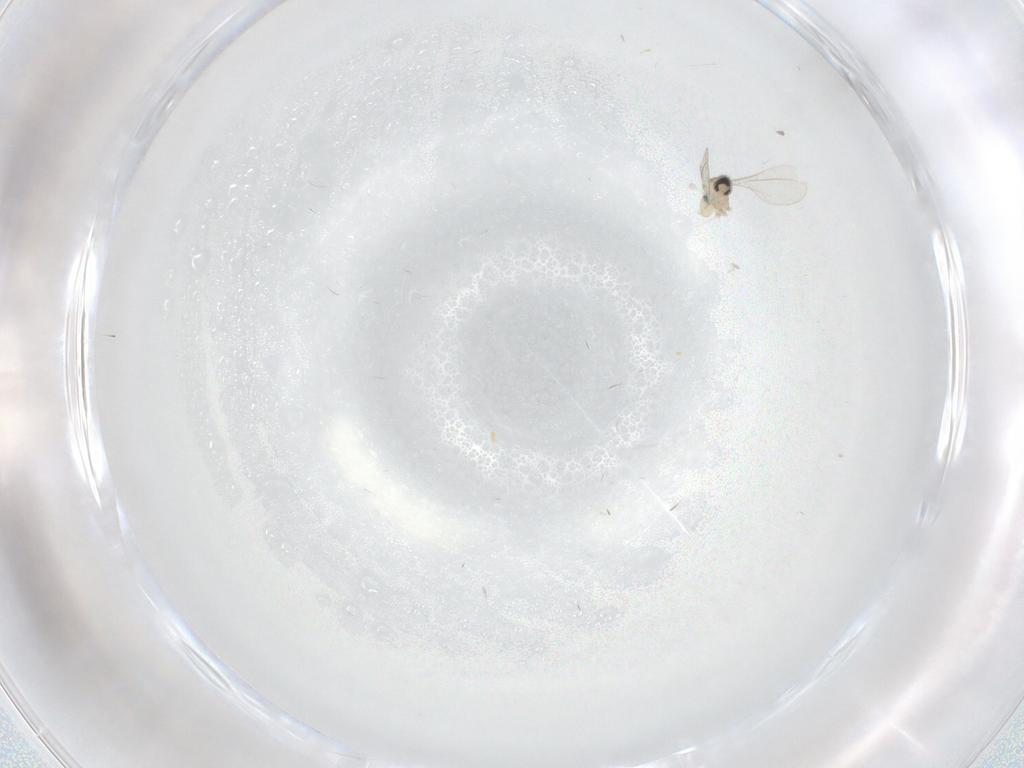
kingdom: Animalia
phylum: Arthropoda
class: Insecta
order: Diptera
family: Cecidomyiidae
